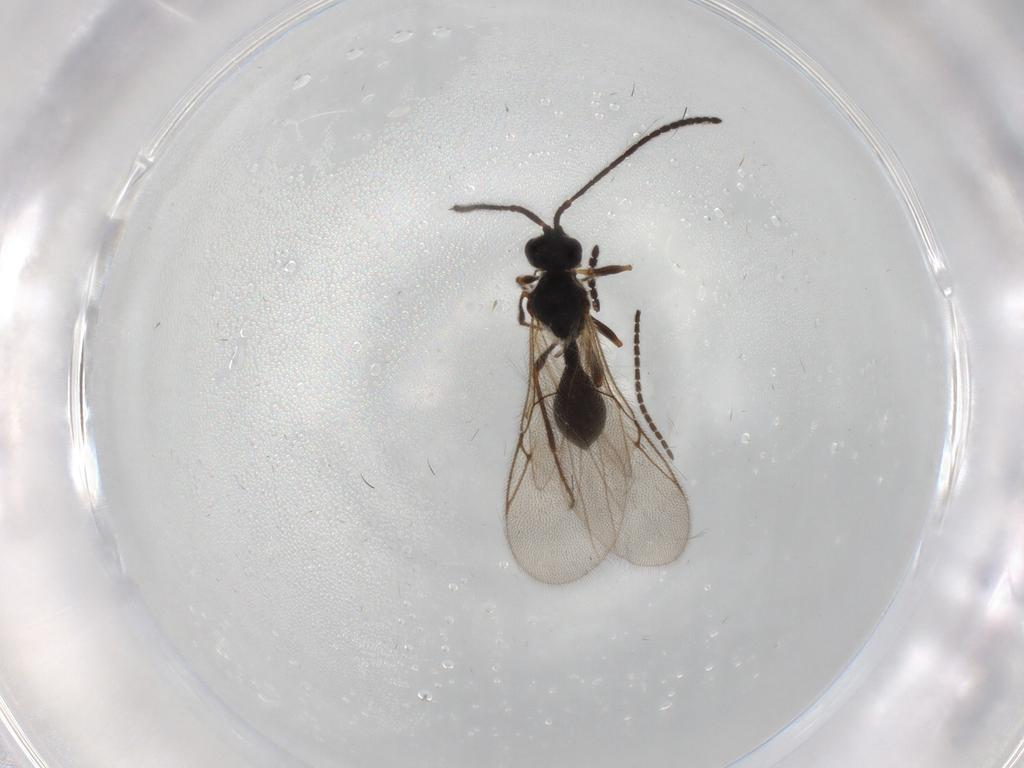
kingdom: Animalia
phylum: Arthropoda
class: Insecta
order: Hymenoptera
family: Diapriidae
